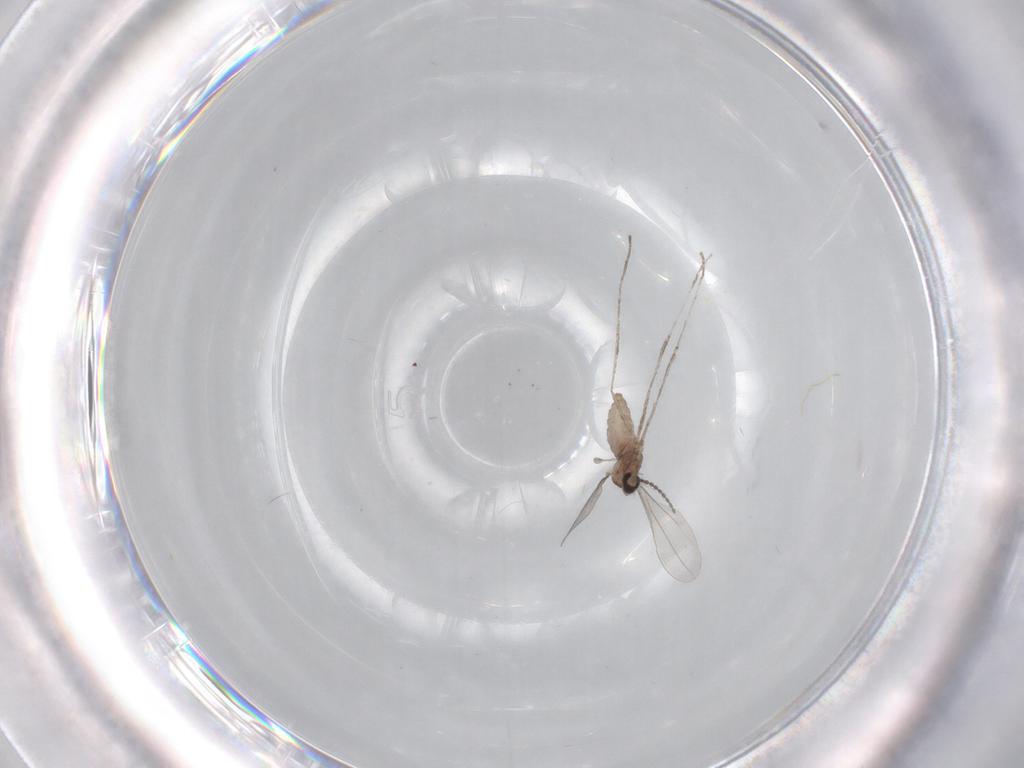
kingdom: Animalia
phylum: Arthropoda
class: Insecta
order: Diptera
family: Cecidomyiidae
